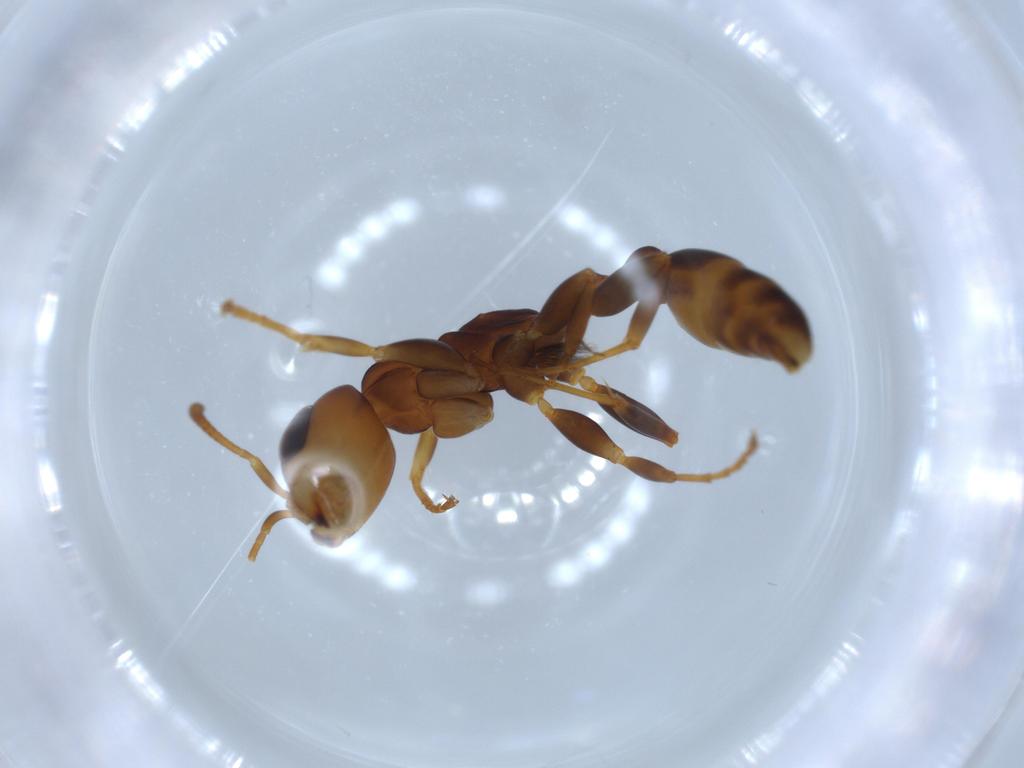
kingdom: Animalia
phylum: Arthropoda
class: Insecta
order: Hymenoptera
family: Formicidae
